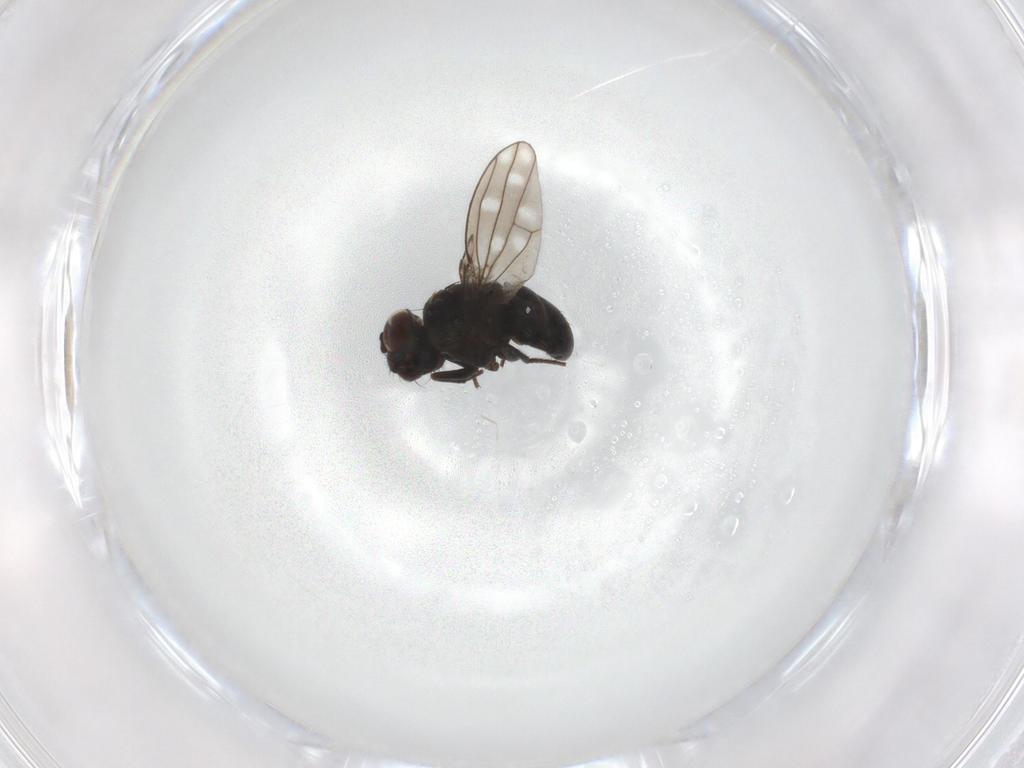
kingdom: Animalia
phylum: Arthropoda
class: Insecta
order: Diptera
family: Ephydridae
